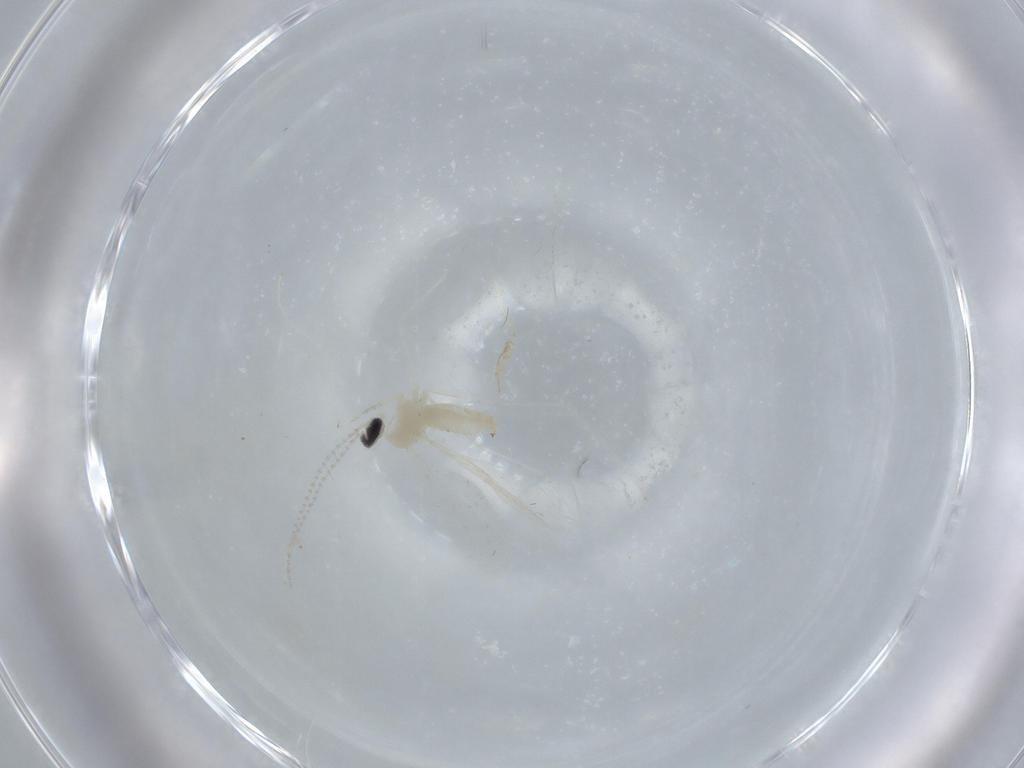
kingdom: Animalia
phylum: Arthropoda
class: Insecta
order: Diptera
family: Cecidomyiidae
